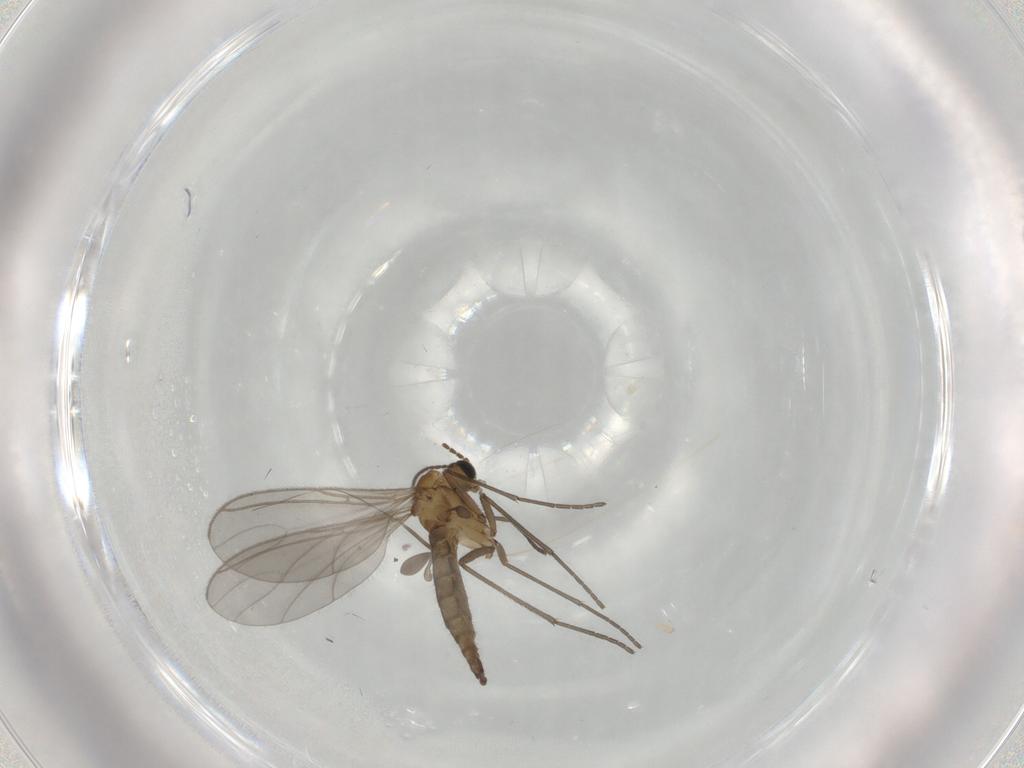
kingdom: Animalia
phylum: Arthropoda
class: Insecta
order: Diptera
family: Sciaridae
